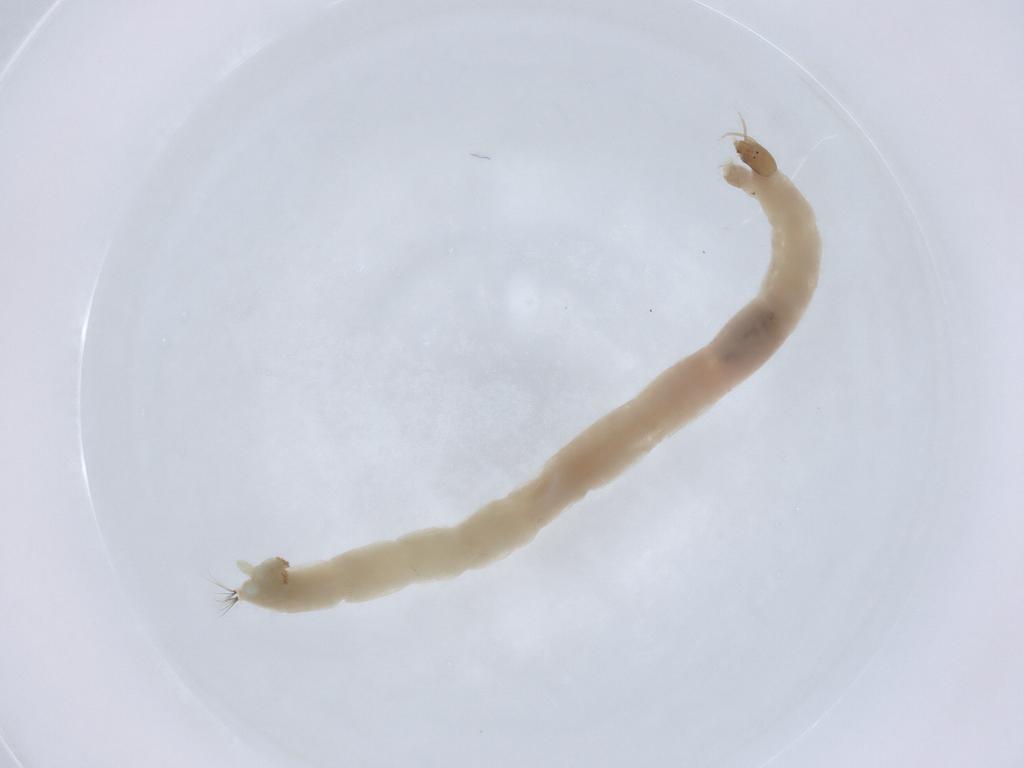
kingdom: Animalia
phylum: Arthropoda
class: Insecta
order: Diptera
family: Chironomidae
